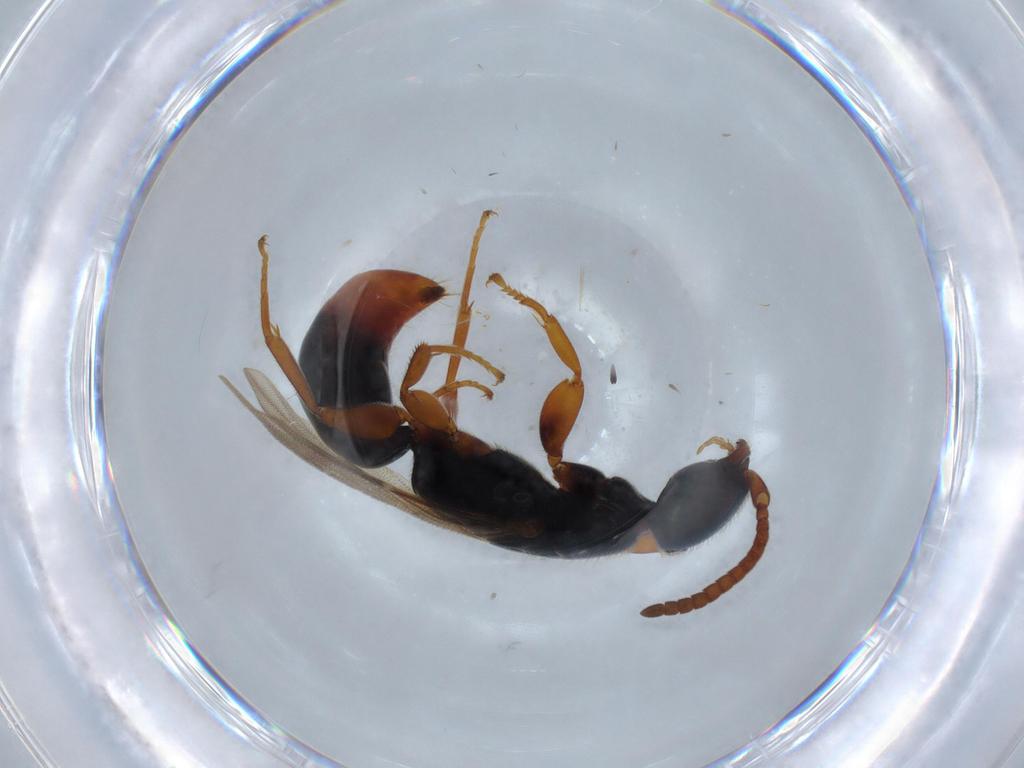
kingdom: Animalia
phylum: Arthropoda
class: Insecta
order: Hymenoptera
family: Bethylidae
